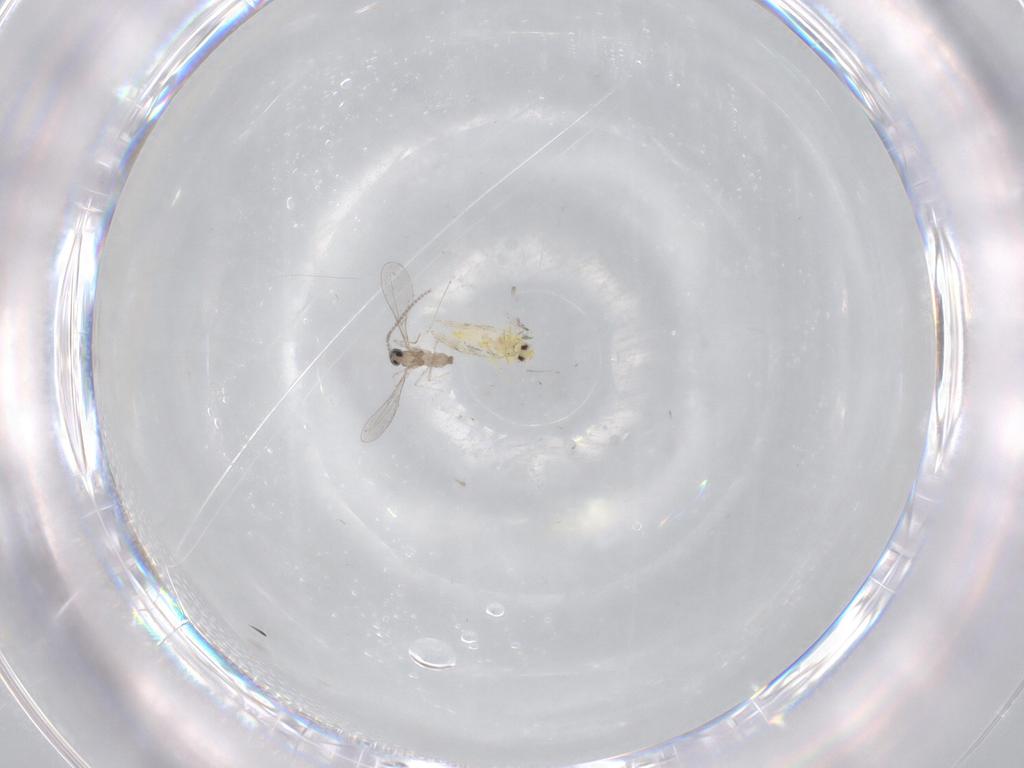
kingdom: Animalia
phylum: Arthropoda
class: Insecta
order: Diptera
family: Cecidomyiidae
